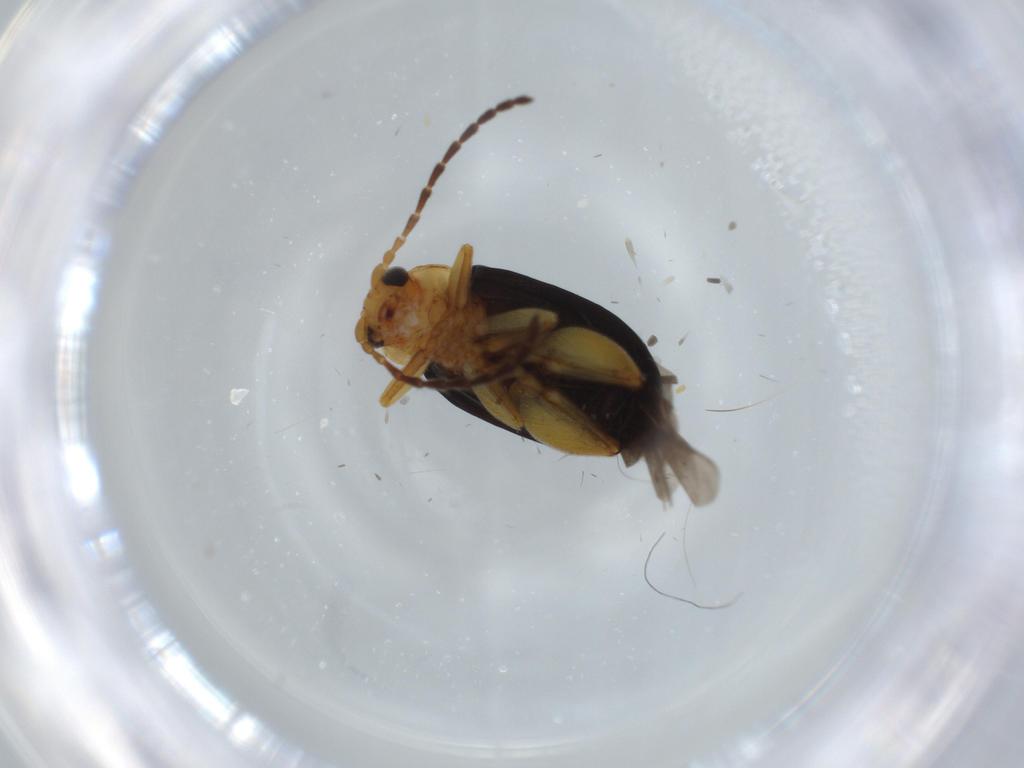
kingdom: Animalia
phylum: Arthropoda
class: Insecta
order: Coleoptera
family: Chrysomelidae
